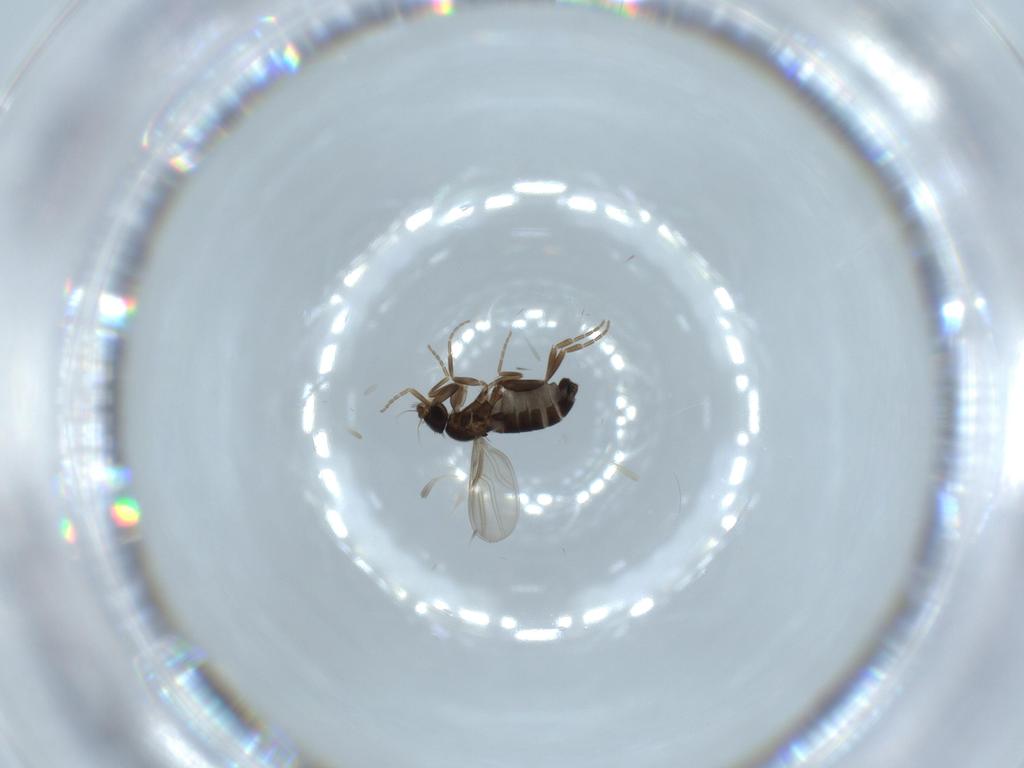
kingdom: Animalia
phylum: Arthropoda
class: Insecta
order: Diptera
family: Phoridae
